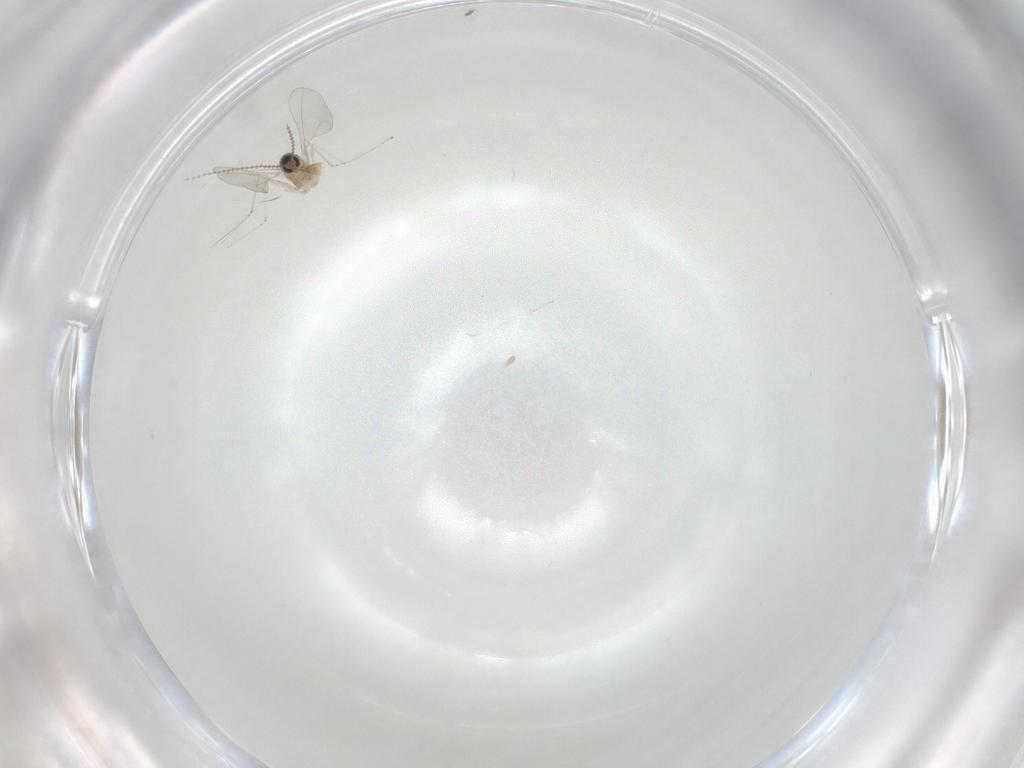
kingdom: Animalia
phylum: Arthropoda
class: Insecta
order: Diptera
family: Cecidomyiidae
